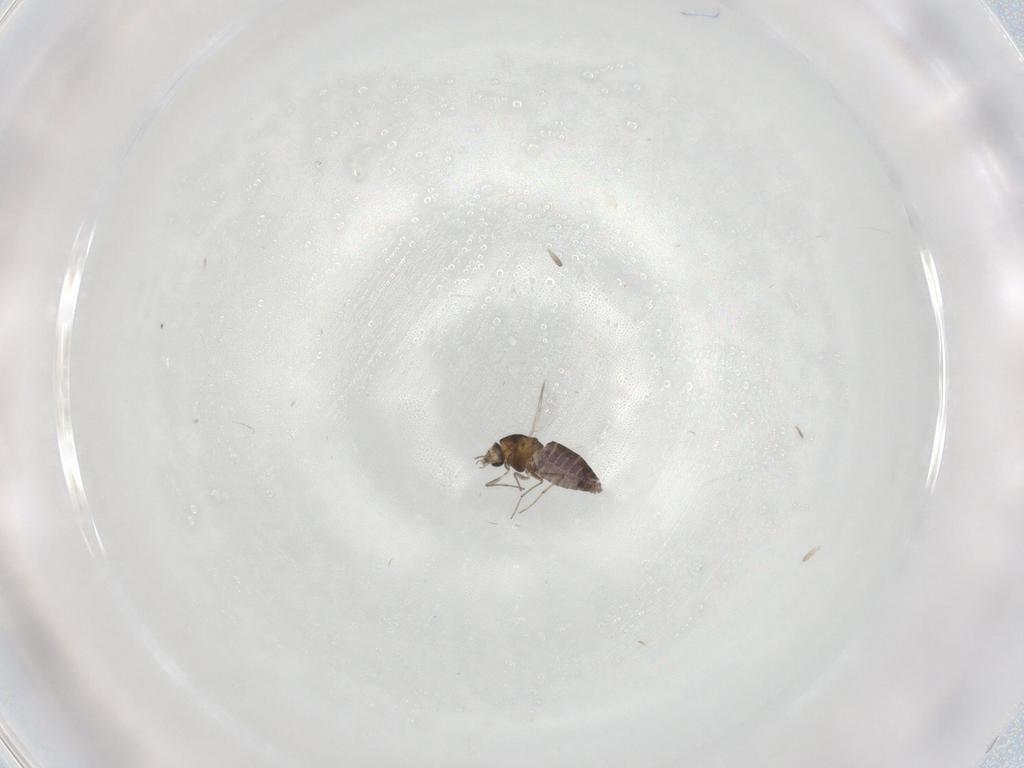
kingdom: Animalia
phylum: Arthropoda
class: Insecta
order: Diptera
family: Chironomidae
